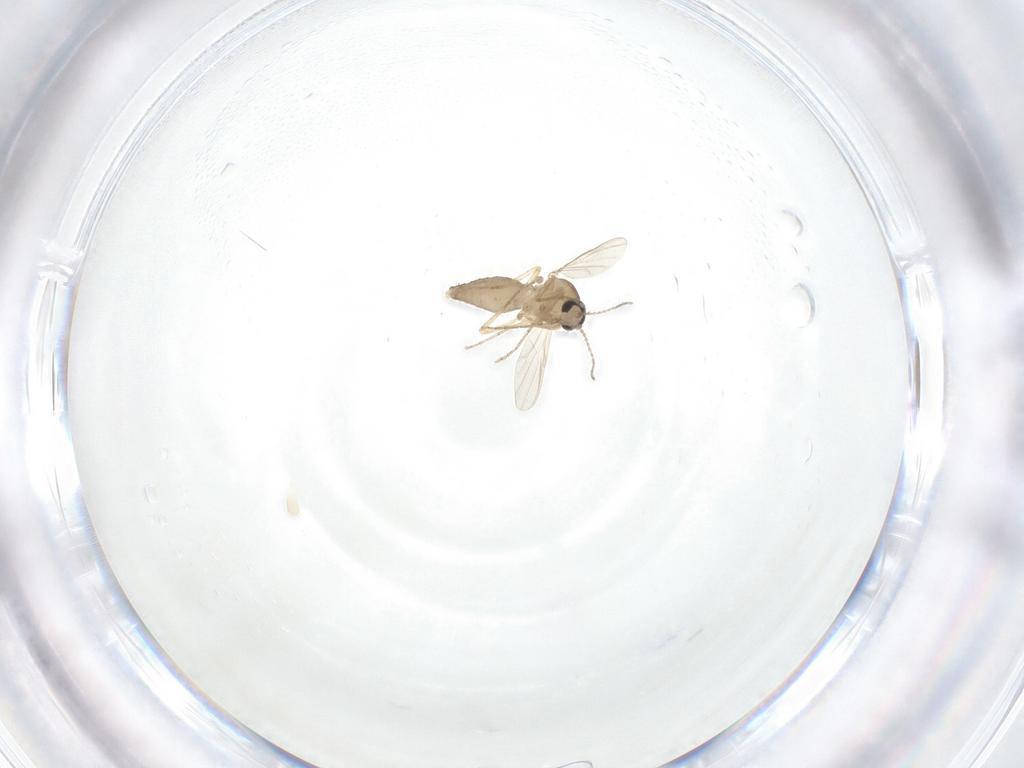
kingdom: Animalia
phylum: Arthropoda
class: Insecta
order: Diptera
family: Ceratopogonidae
